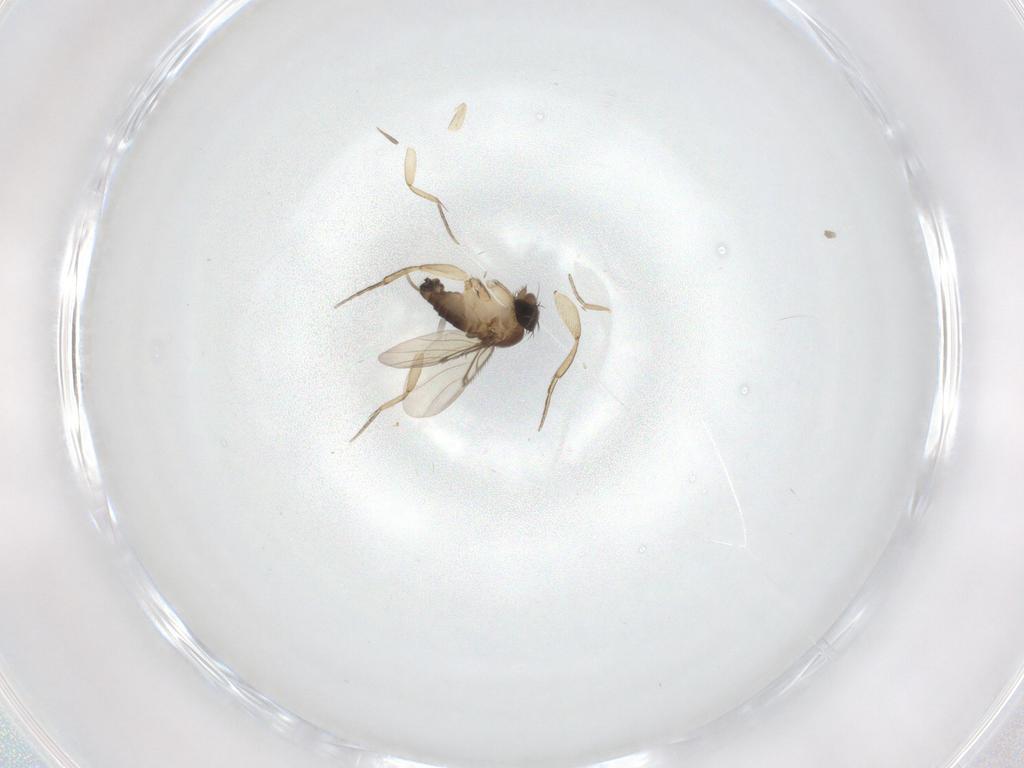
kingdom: Animalia
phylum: Arthropoda
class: Insecta
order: Diptera
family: Phoridae
